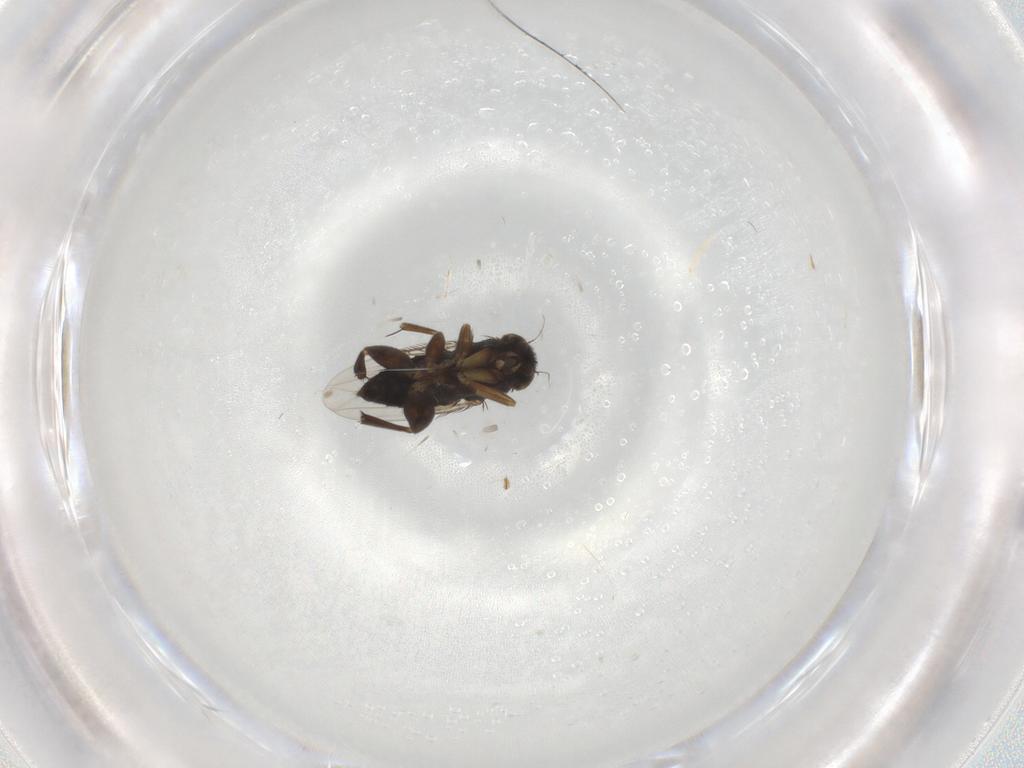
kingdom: Animalia
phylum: Arthropoda
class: Insecta
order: Diptera
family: Phoridae
